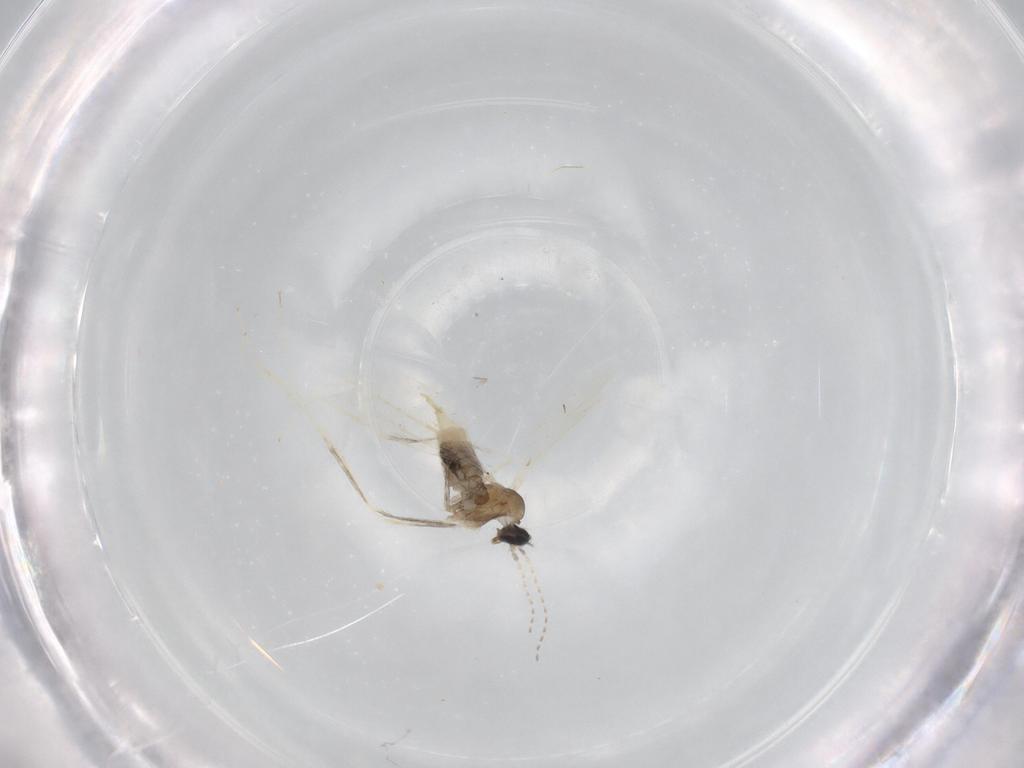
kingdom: Animalia
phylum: Arthropoda
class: Insecta
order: Diptera
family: Cecidomyiidae
